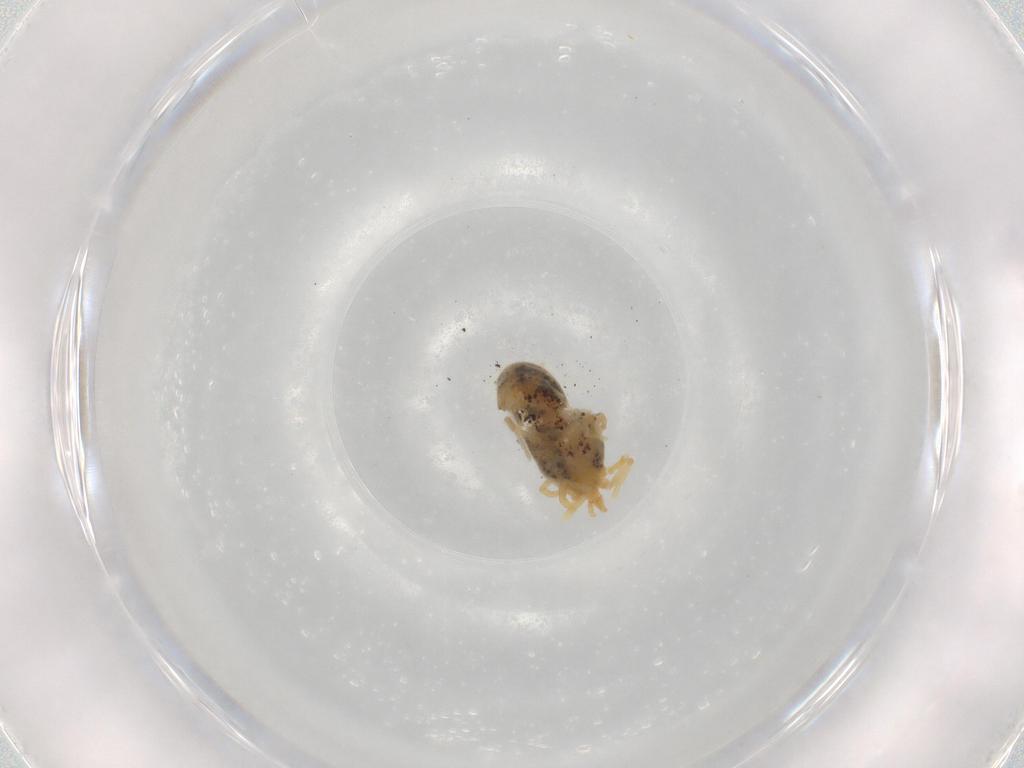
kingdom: Animalia
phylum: Arthropoda
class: Arachnida
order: Trombidiformes
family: Erythraeidae
